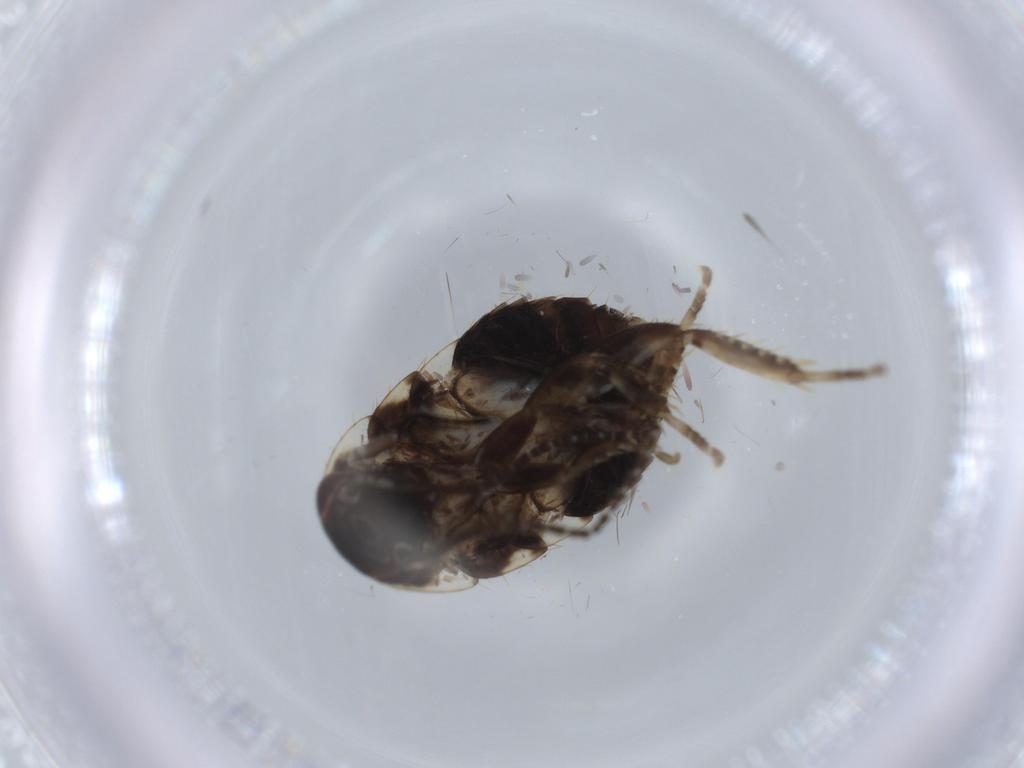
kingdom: Animalia
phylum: Arthropoda
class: Insecta
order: Blattodea
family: Ectobiidae
